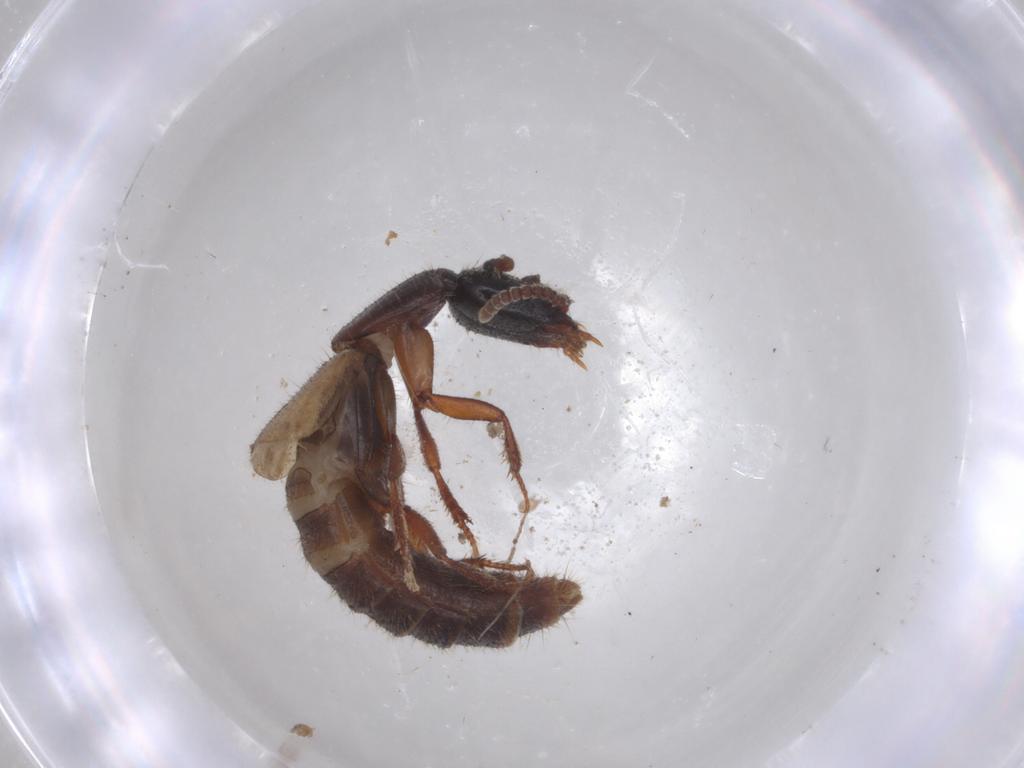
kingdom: Animalia
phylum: Arthropoda
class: Insecta
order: Coleoptera
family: Staphylinidae
